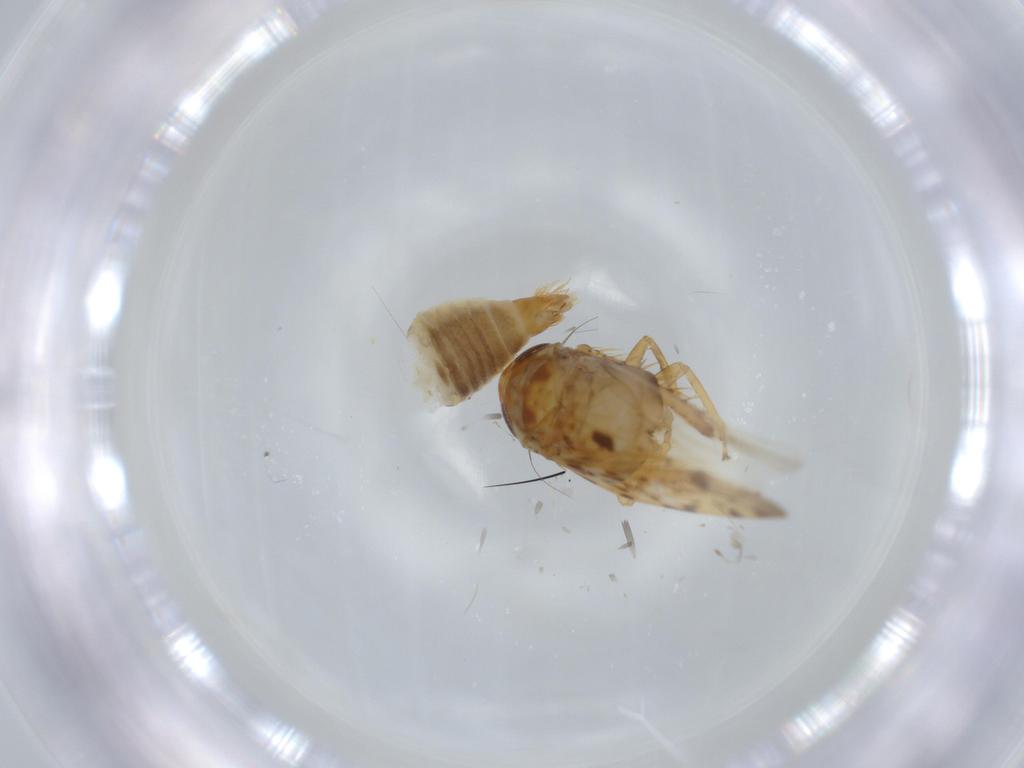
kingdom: Animalia
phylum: Arthropoda
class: Insecta
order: Hemiptera
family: Cicadellidae
